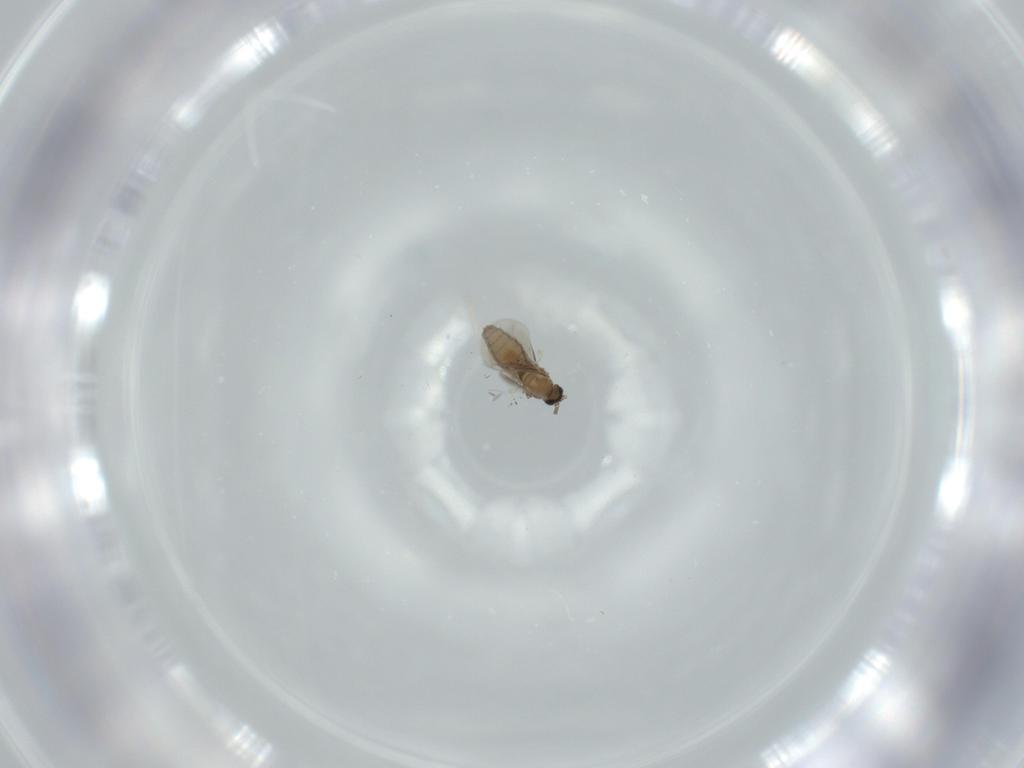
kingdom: Animalia
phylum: Arthropoda
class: Insecta
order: Diptera
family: Cecidomyiidae
